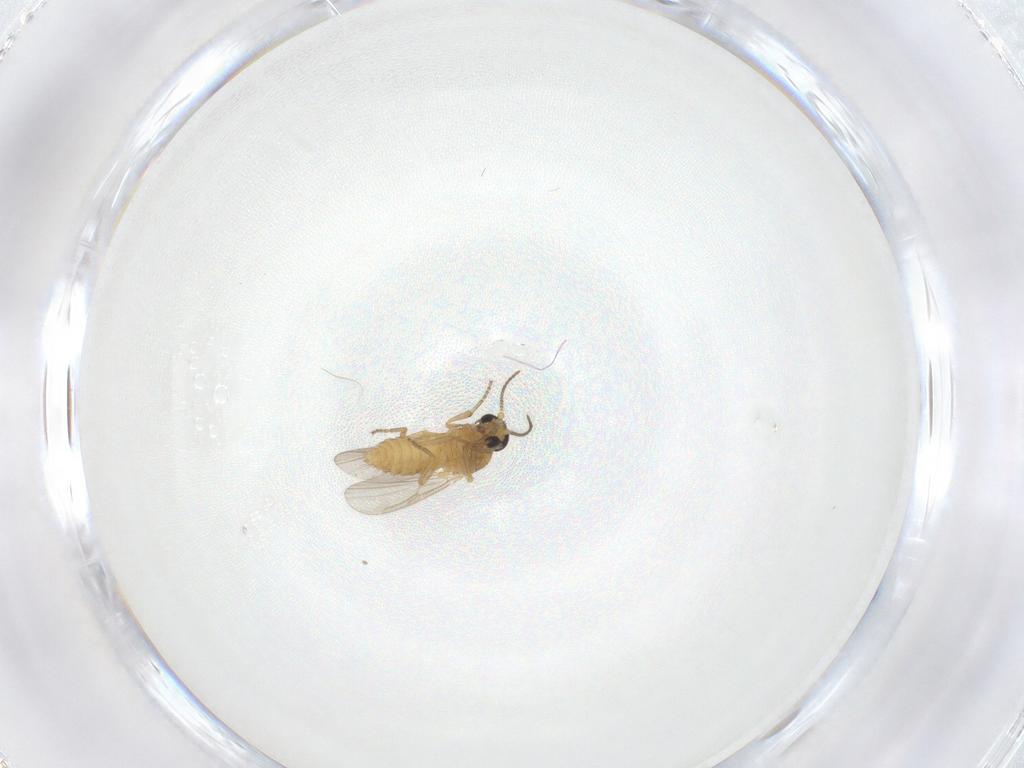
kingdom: Animalia
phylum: Arthropoda
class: Insecta
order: Diptera
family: Ceratopogonidae
